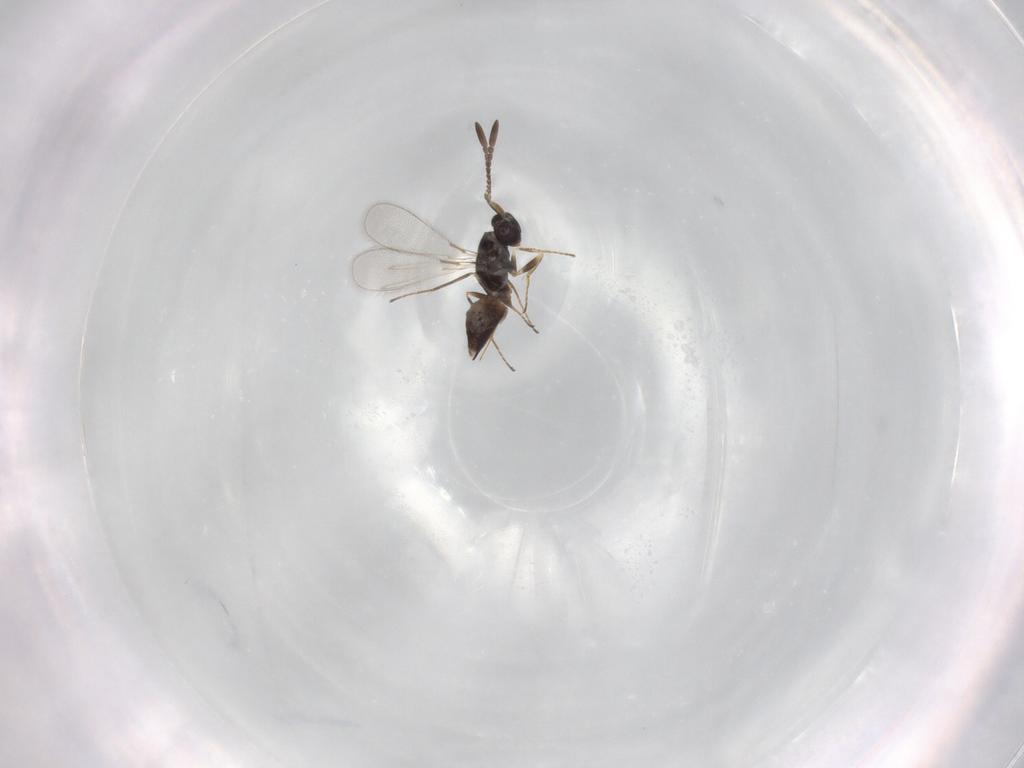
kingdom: Animalia
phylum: Arthropoda
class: Insecta
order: Hymenoptera
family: Mymaridae
